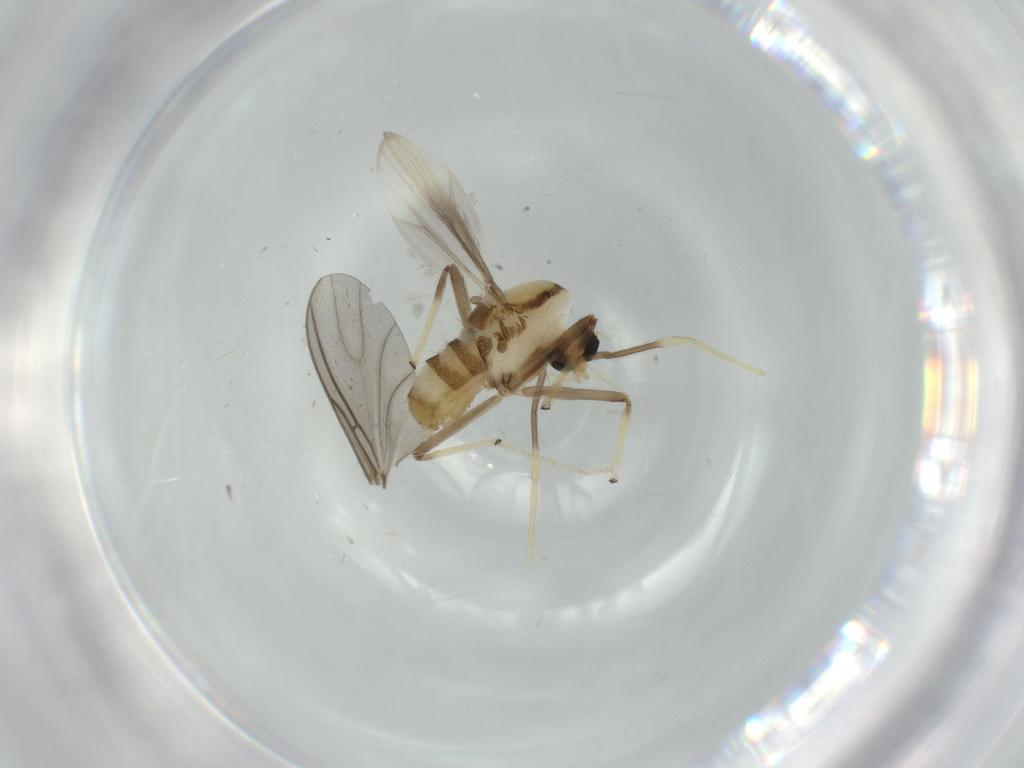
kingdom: Animalia
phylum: Arthropoda
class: Insecta
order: Diptera
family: Chironomidae
